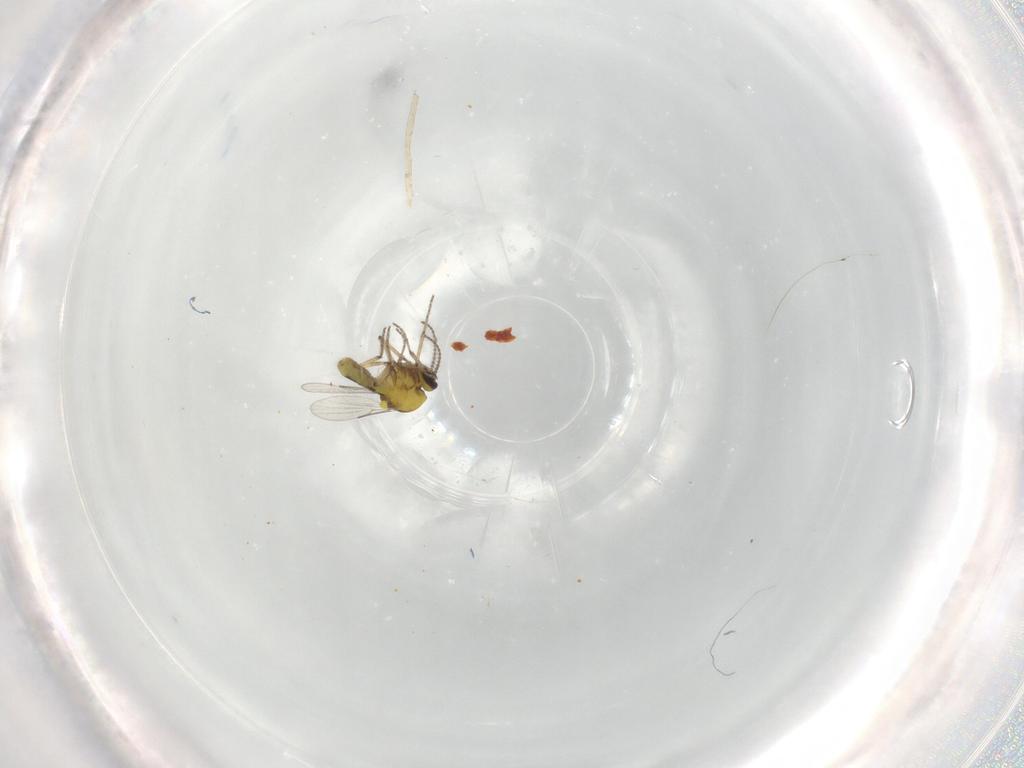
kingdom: Animalia
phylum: Arthropoda
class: Insecta
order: Diptera
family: Ceratopogonidae
